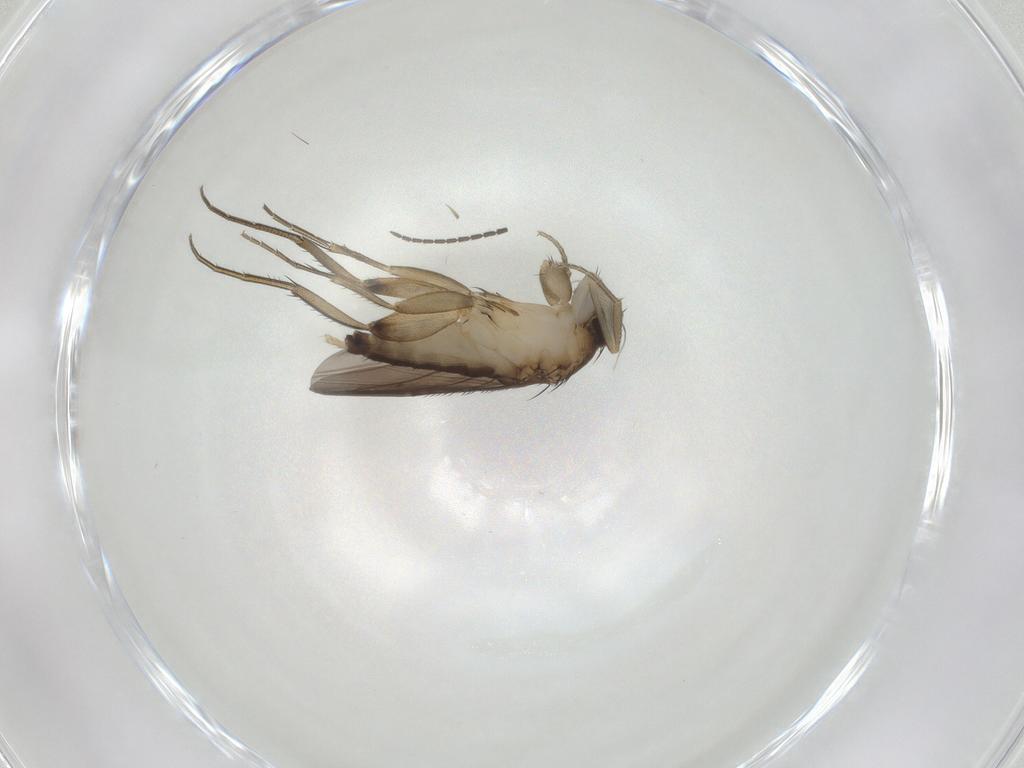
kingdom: Animalia
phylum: Arthropoda
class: Insecta
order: Diptera
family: Phoridae
